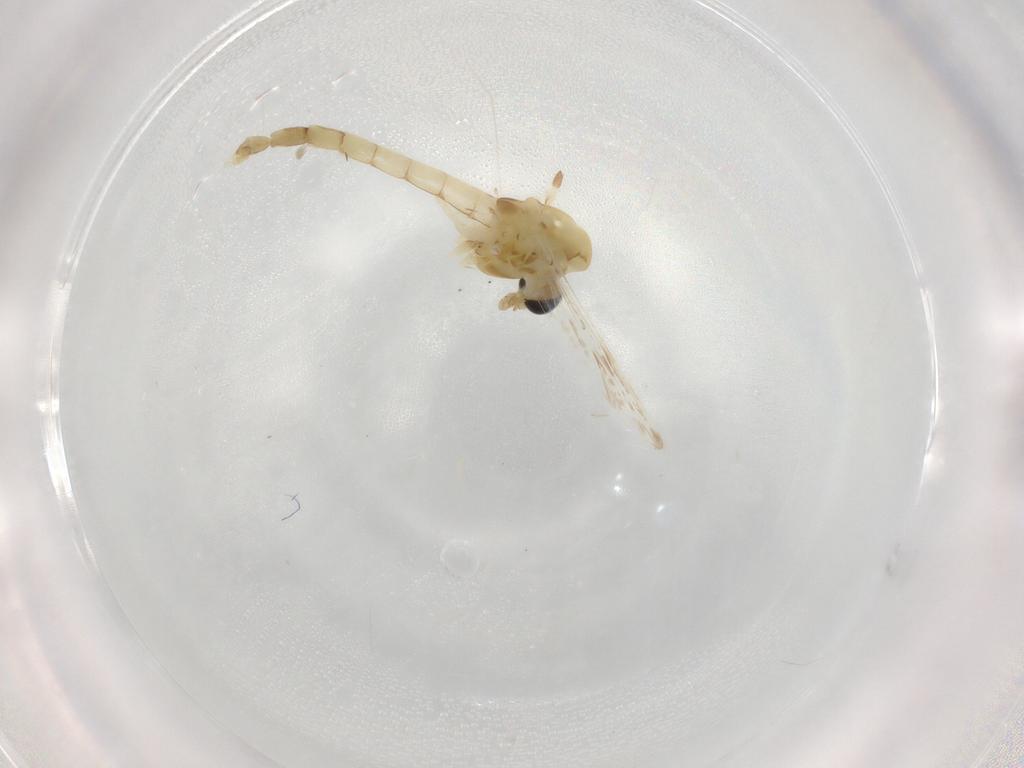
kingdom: Animalia
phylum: Arthropoda
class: Insecta
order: Diptera
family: Chironomidae
